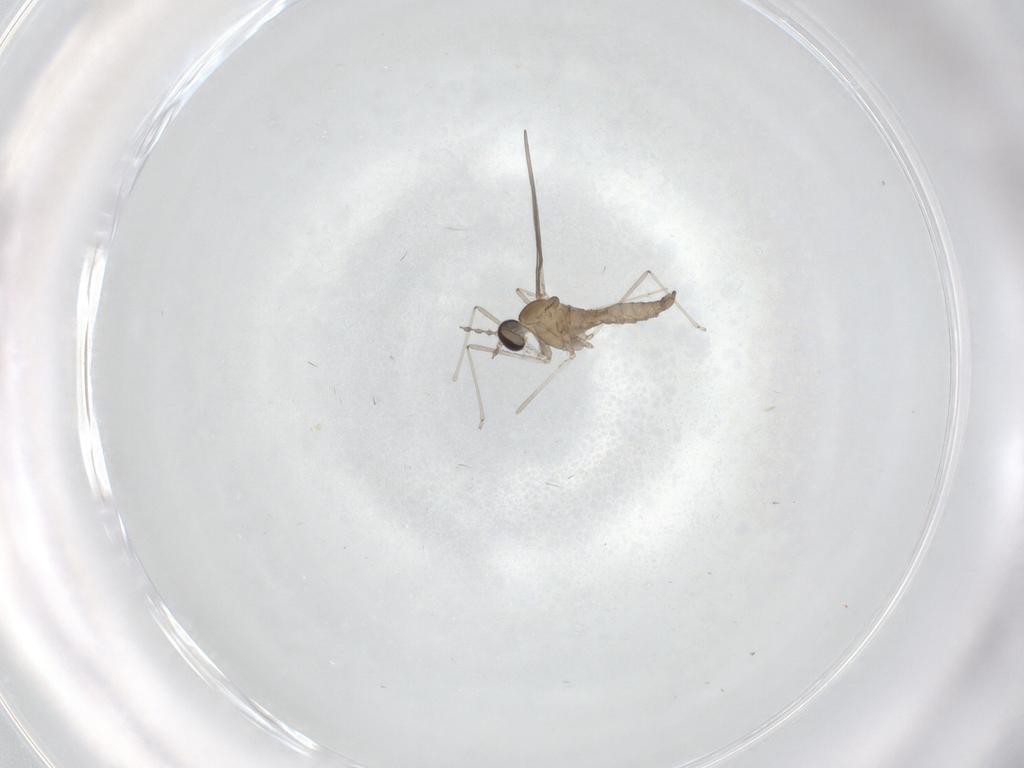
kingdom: Animalia
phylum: Arthropoda
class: Insecta
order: Diptera
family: Cecidomyiidae
